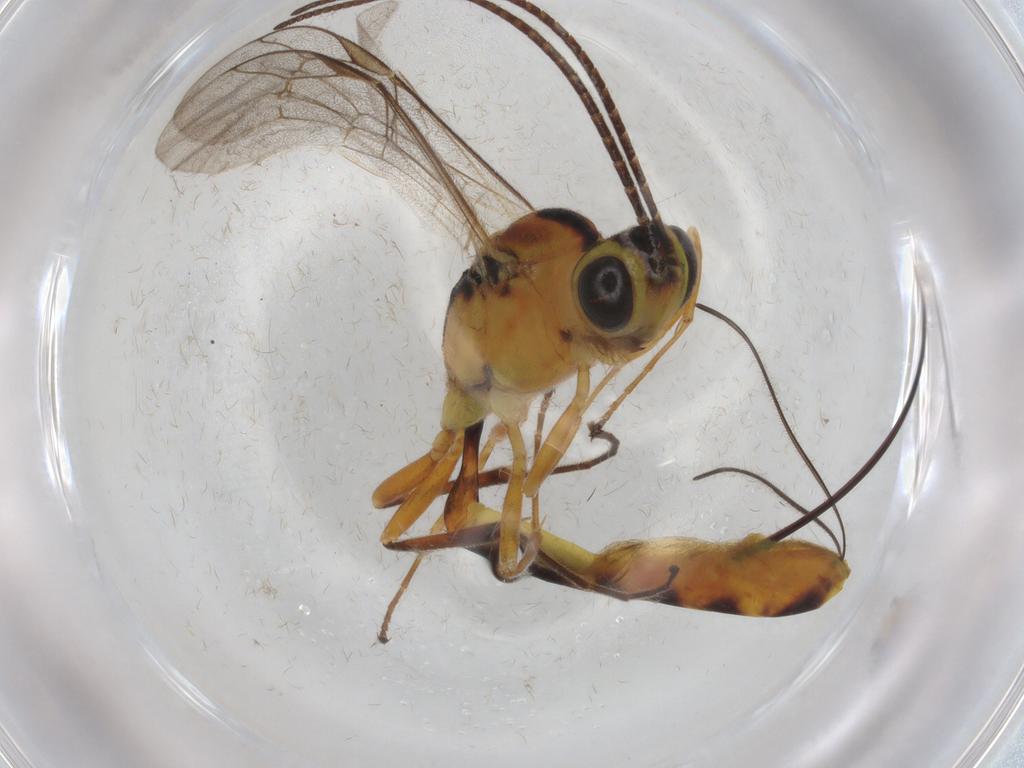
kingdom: Animalia
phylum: Arthropoda
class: Insecta
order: Hymenoptera
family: Ichneumonidae
